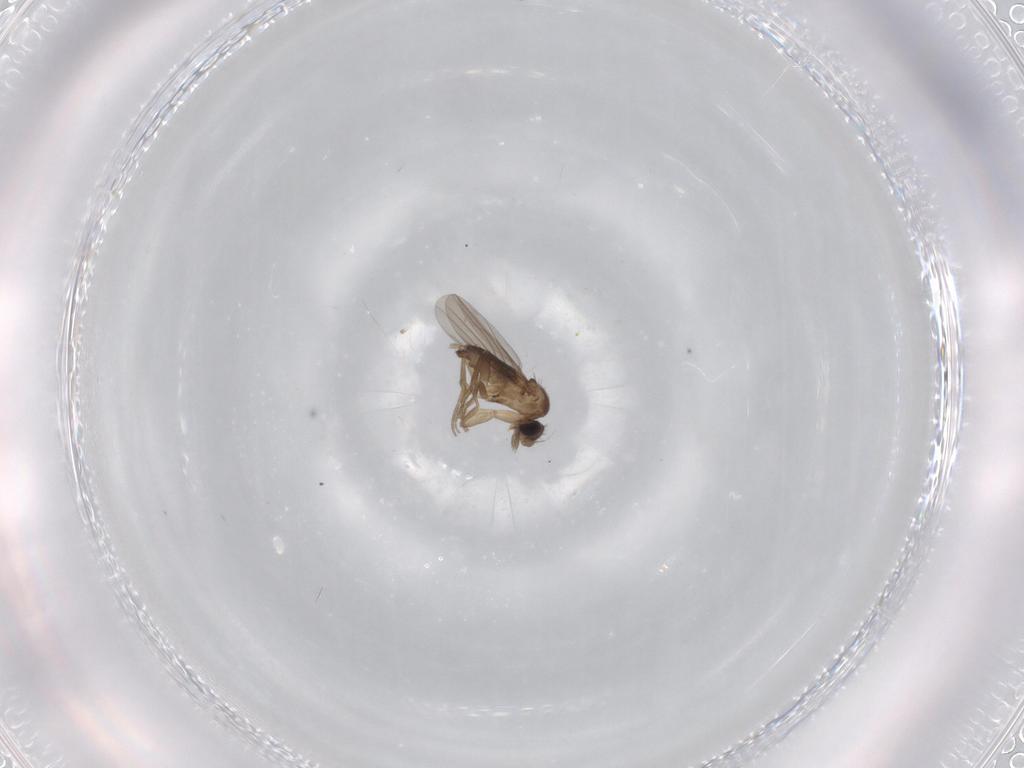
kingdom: Animalia
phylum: Arthropoda
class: Insecta
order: Diptera
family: Phoridae
